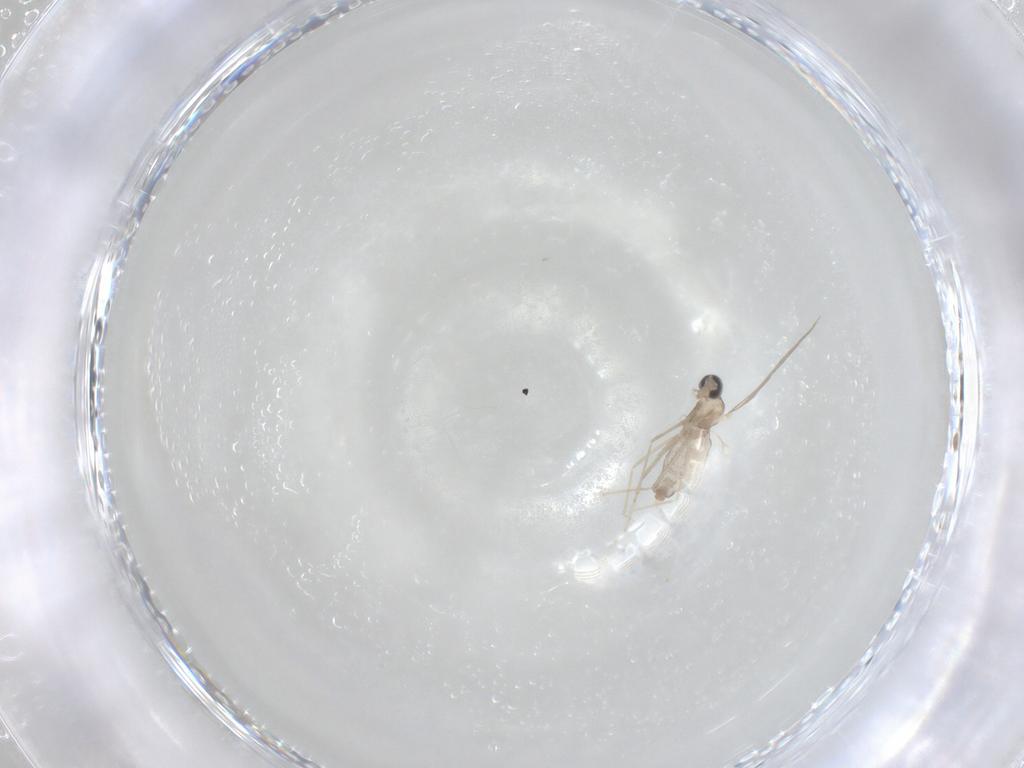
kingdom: Animalia
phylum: Arthropoda
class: Insecta
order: Diptera
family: Cecidomyiidae
